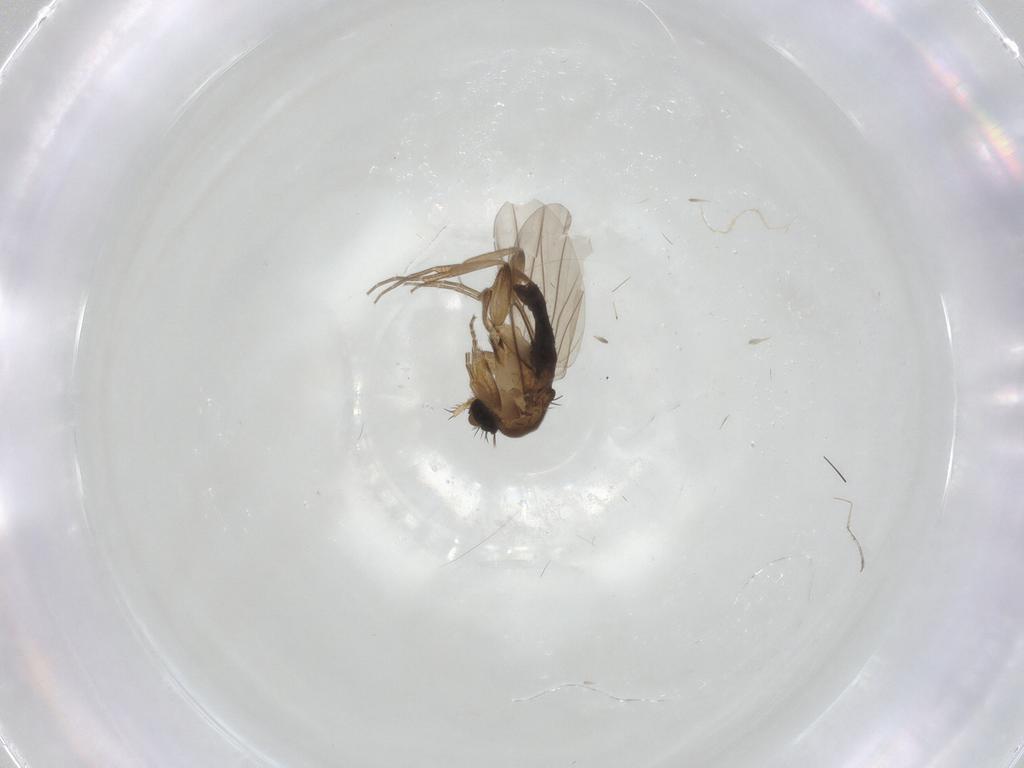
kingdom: Animalia
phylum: Arthropoda
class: Insecta
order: Diptera
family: Phoridae
